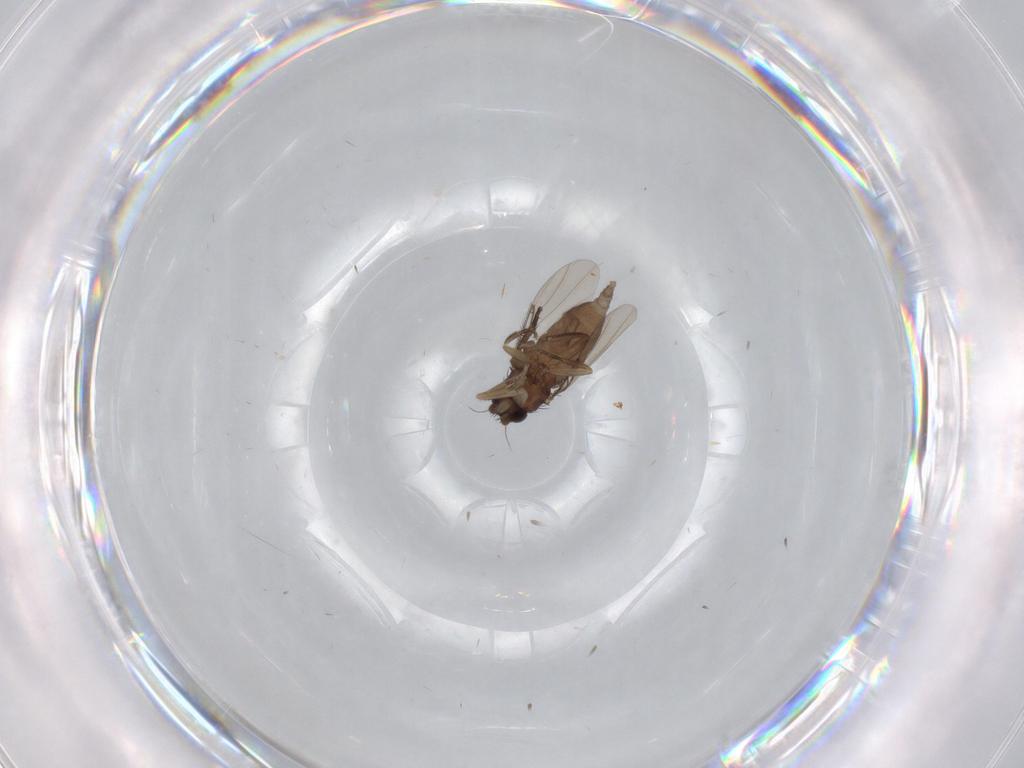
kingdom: Animalia
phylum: Arthropoda
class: Insecta
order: Diptera
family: Phoridae
